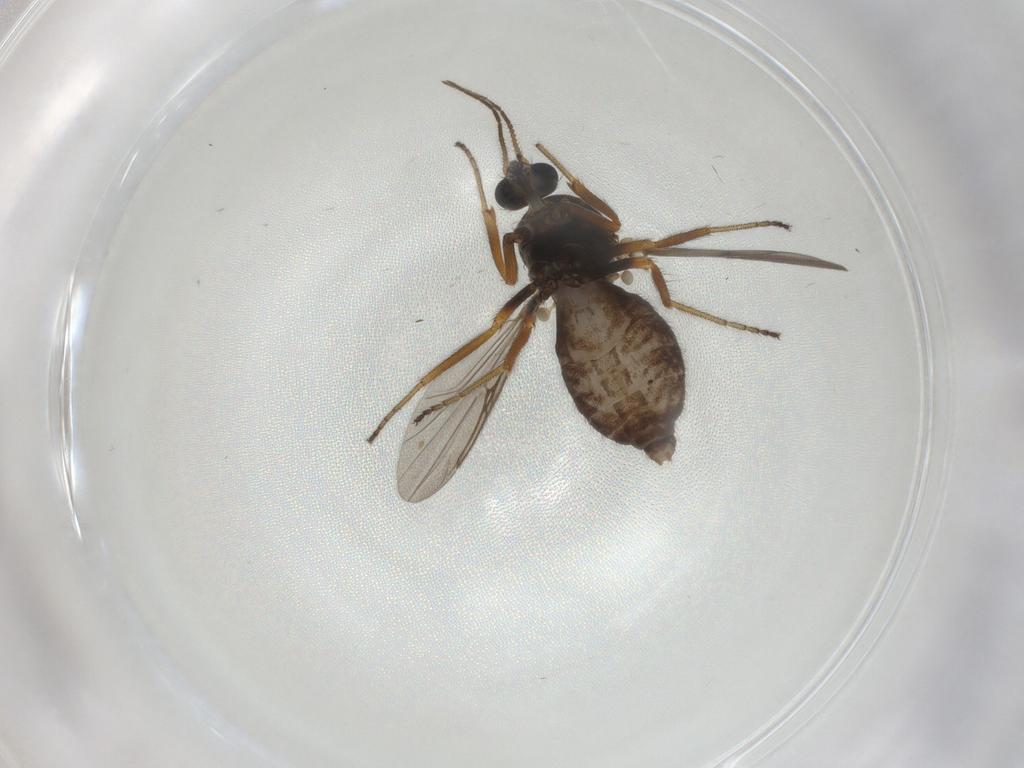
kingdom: Animalia
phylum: Arthropoda
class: Insecta
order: Diptera
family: Ceratopogonidae
